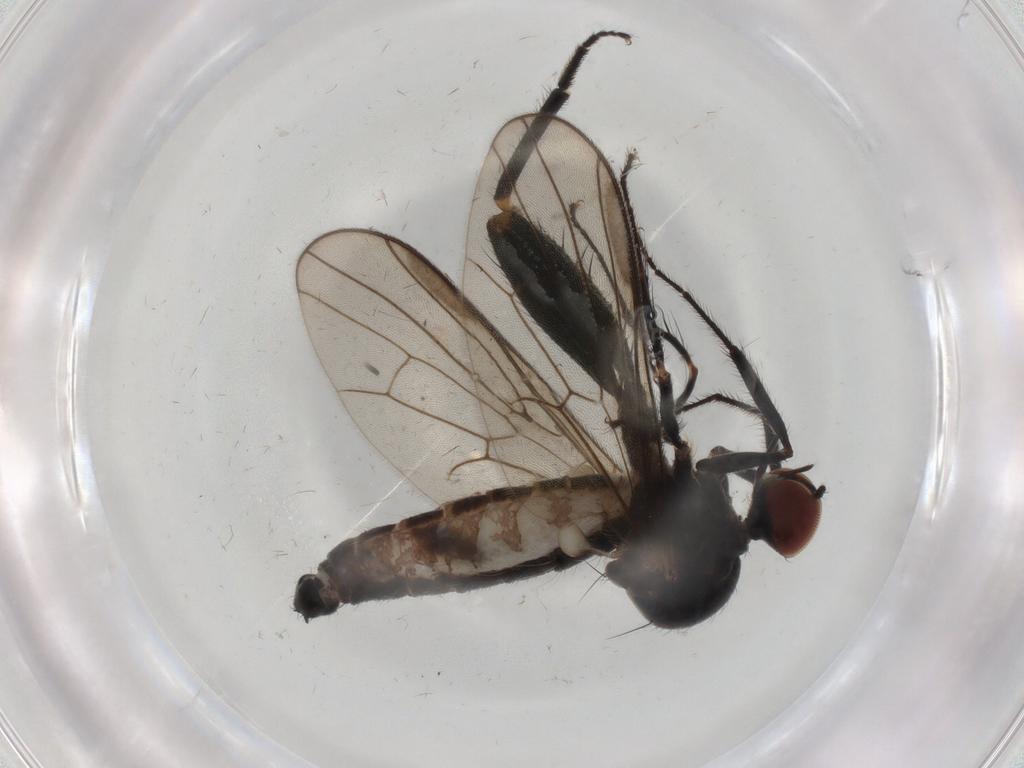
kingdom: Animalia
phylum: Arthropoda
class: Insecta
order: Diptera
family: Hybotidae
